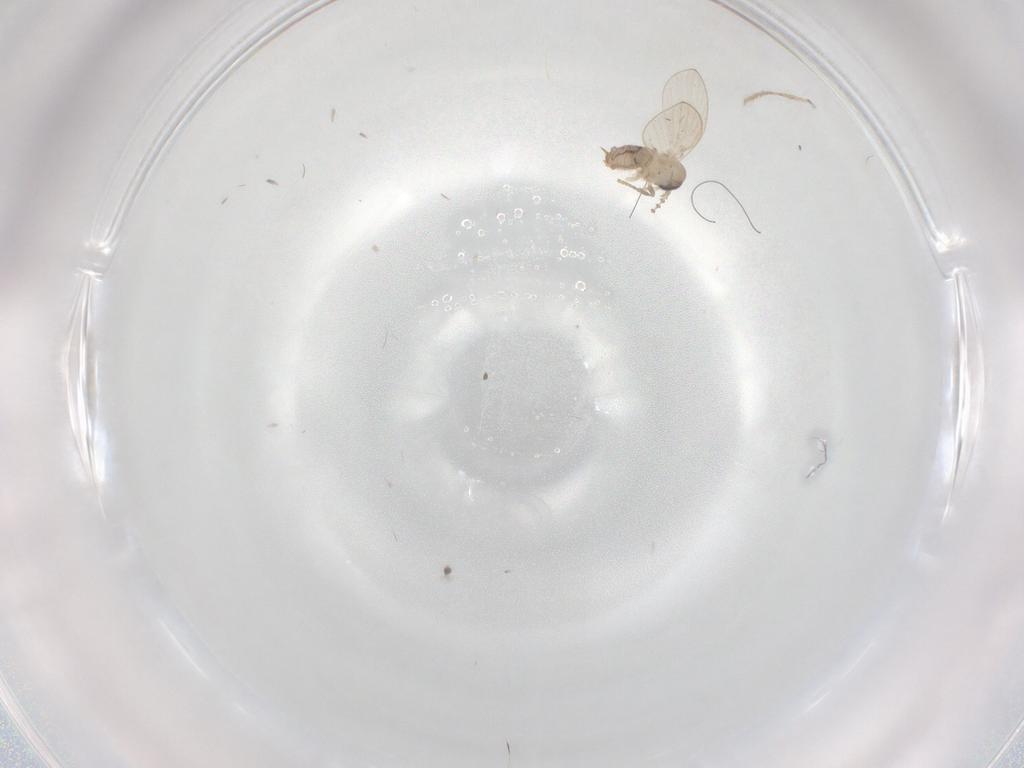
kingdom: Animalia
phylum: Arthropoda
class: Insecta
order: Diptera
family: Chironomidae
